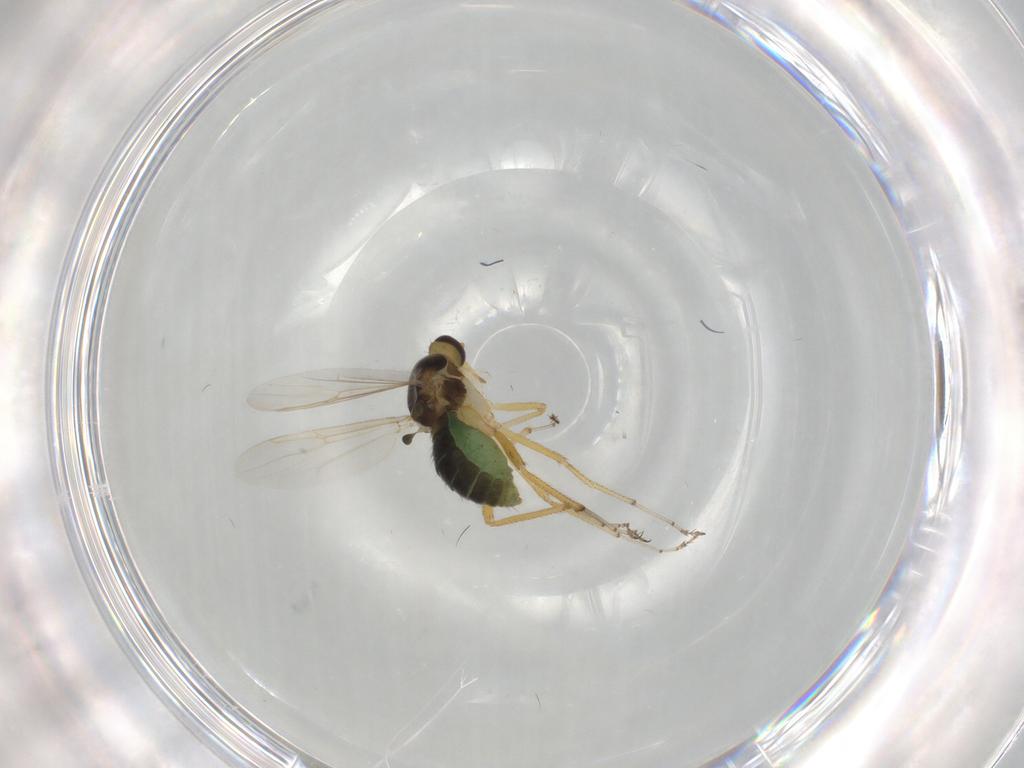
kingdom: Animalia
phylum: Arthropoda
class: Insecta
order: Diptera
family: Ceratopogonidae
